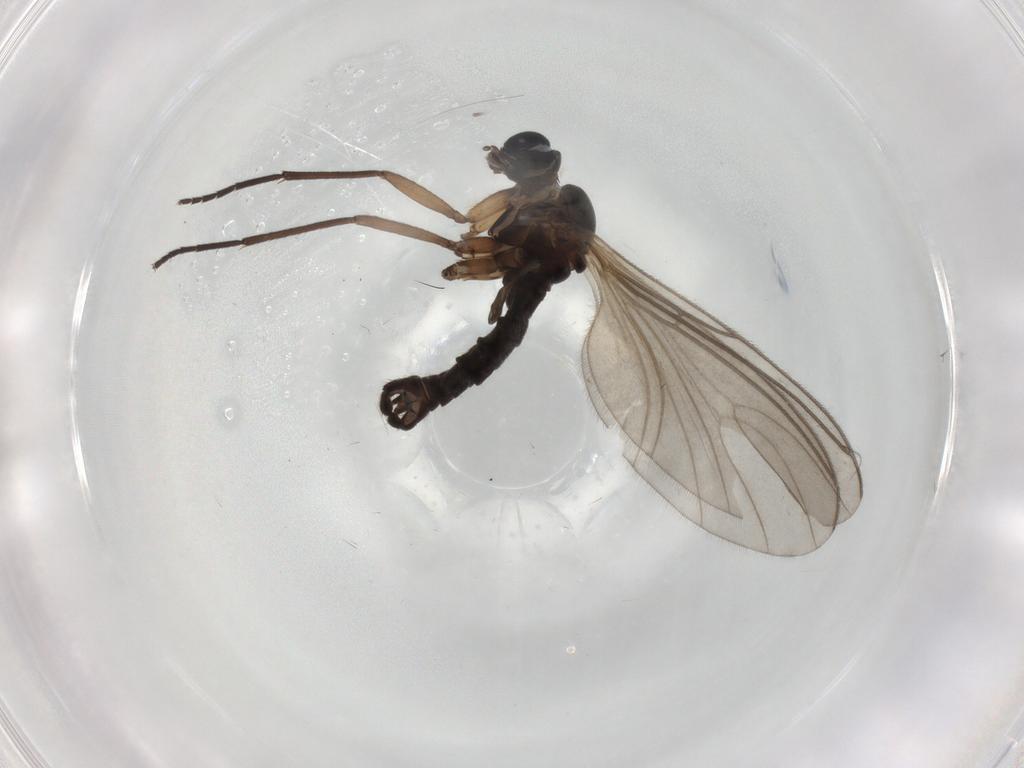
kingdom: Animalia
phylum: Arthropoda
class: Insecta
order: Diptera
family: Sciaridae
